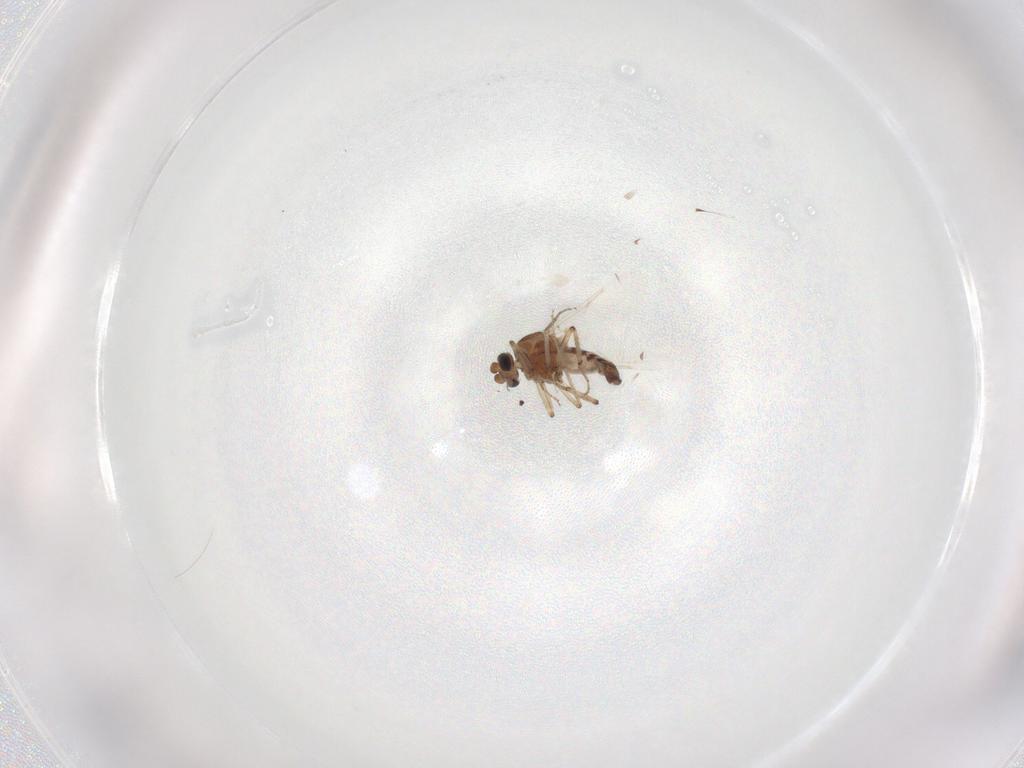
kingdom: Animalia
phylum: Arthropoda
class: Insecta
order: Diptera
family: Ceratopogonidae
